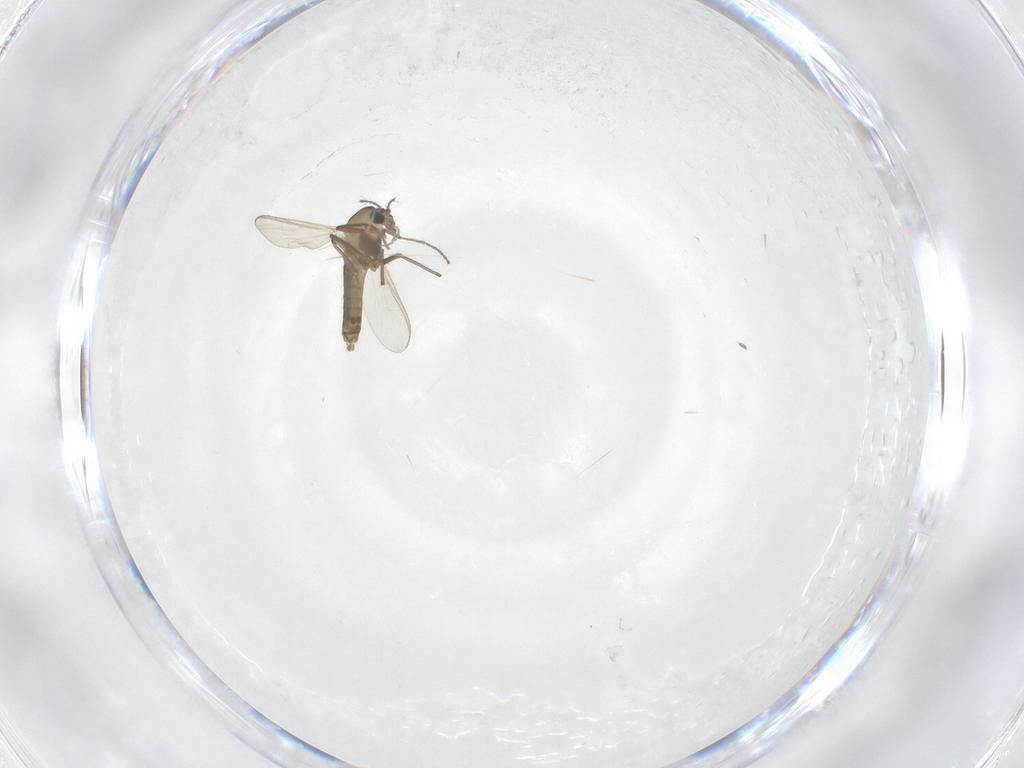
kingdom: Animalia
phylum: Arthropoda
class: Insecta
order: Diptera
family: Chironomidae
